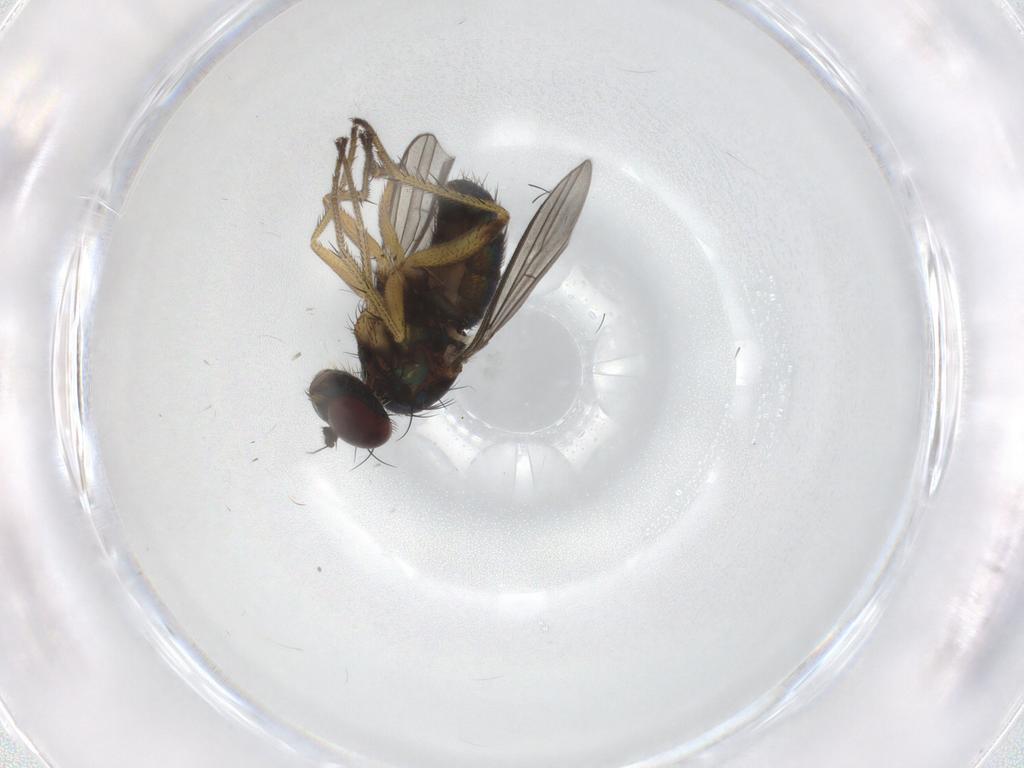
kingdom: Animalia
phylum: Arthropoda
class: Insecta
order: Diptera
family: Dolichopodidae
